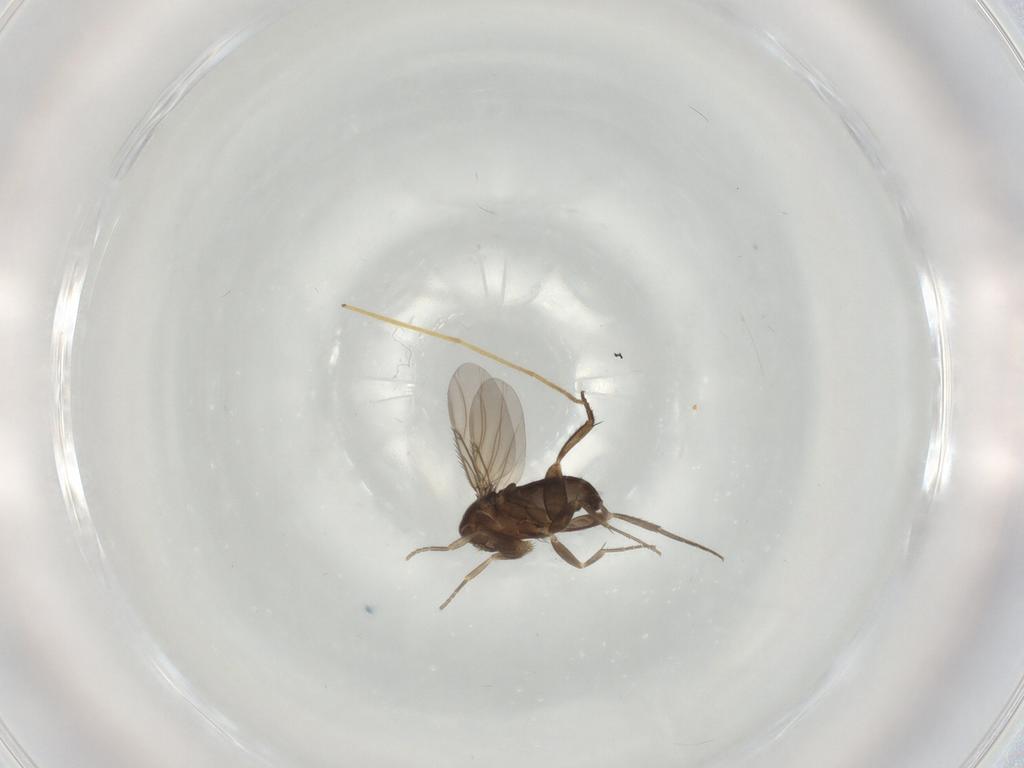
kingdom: Animalia
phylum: Arthropoda
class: Insecta
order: Diptera
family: Phoridae
